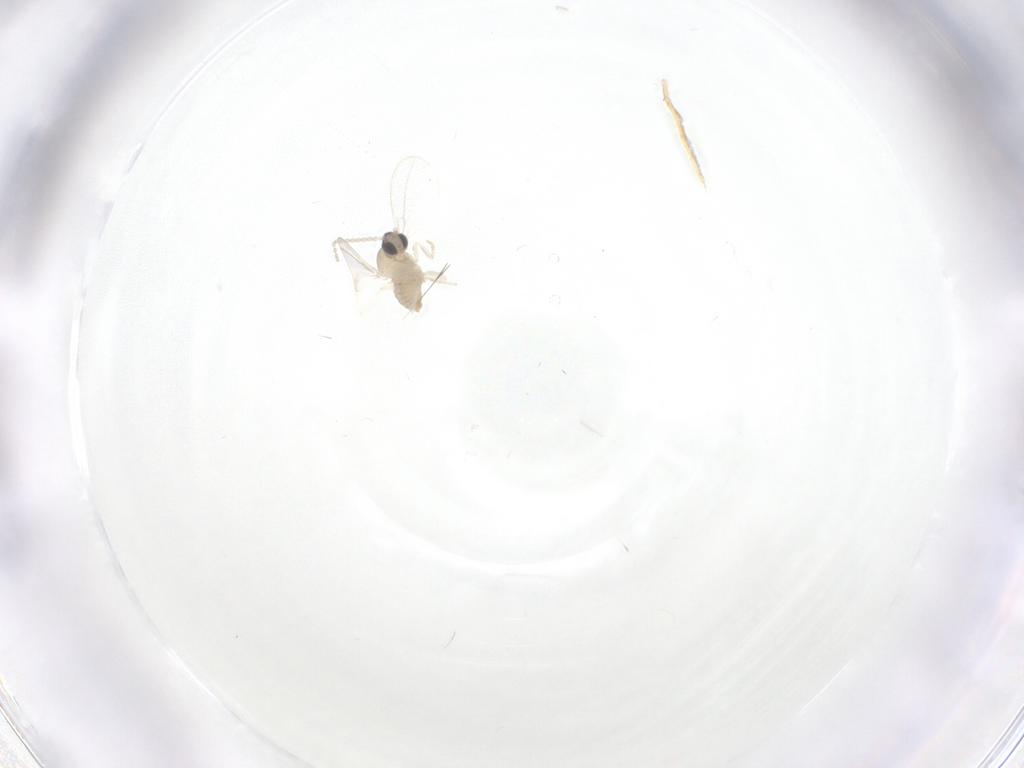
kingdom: Animalia
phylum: Arthropoda
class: Insecta
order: Diptera
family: Cecidomyiidae
